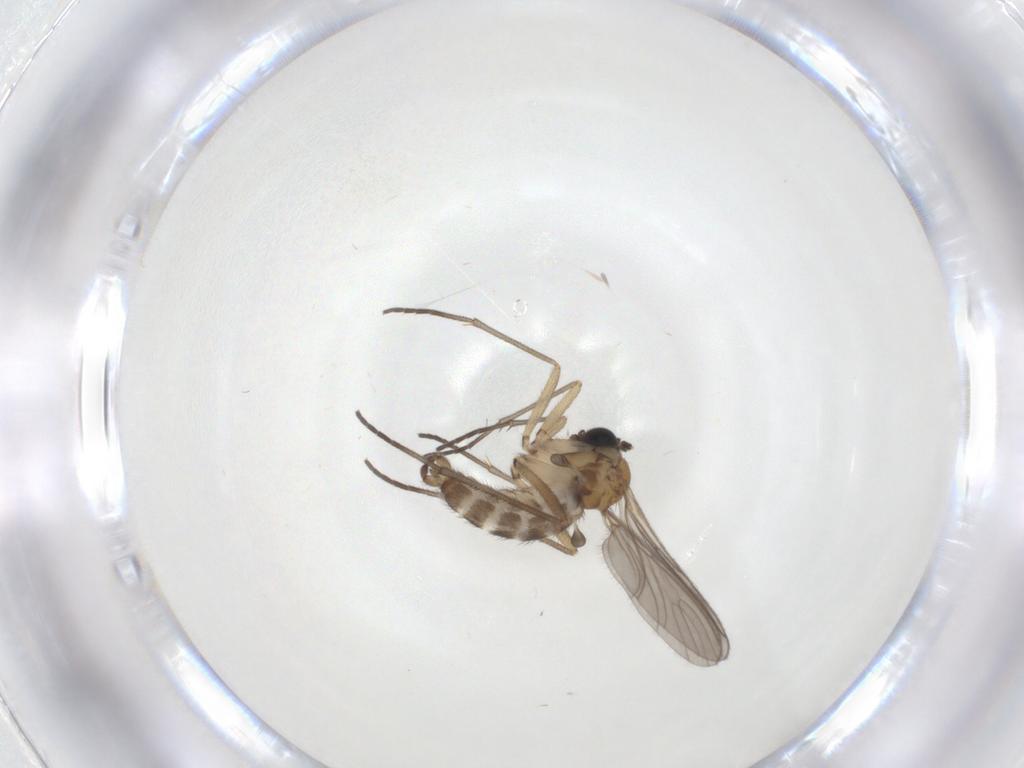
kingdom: Animalia
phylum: Arthropoda
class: Insecta
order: Diptera
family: Sciaridae
